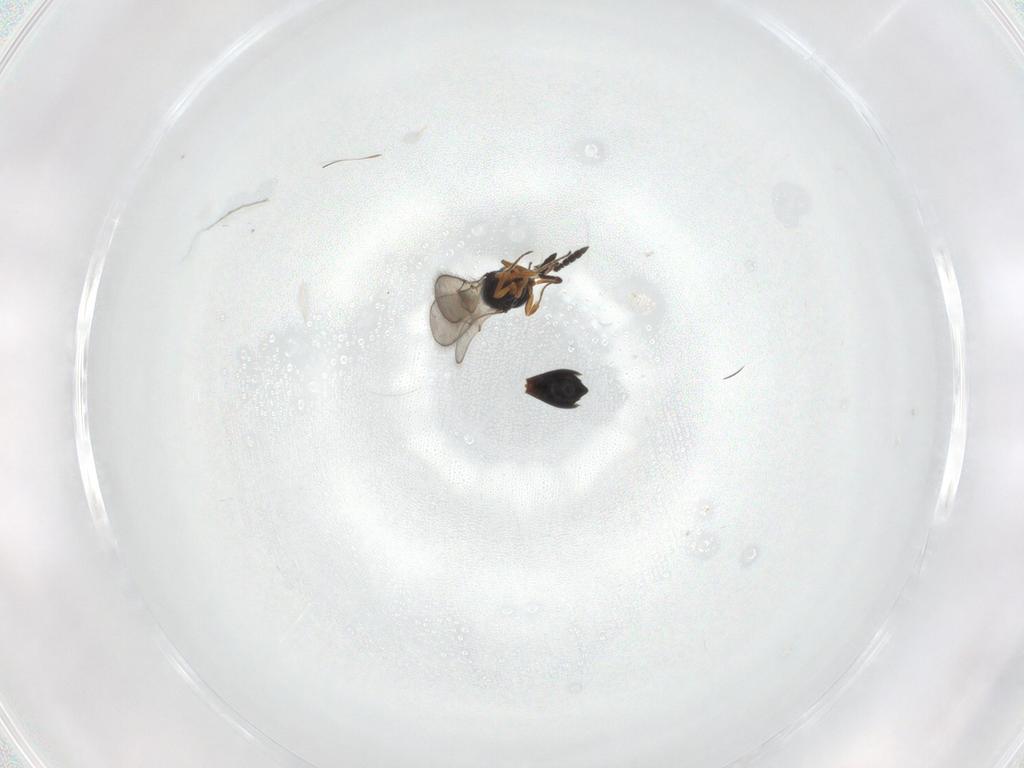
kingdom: Animalia
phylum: Arthropoda
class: Insecta
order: Hymenoptera
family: Scelionidae
